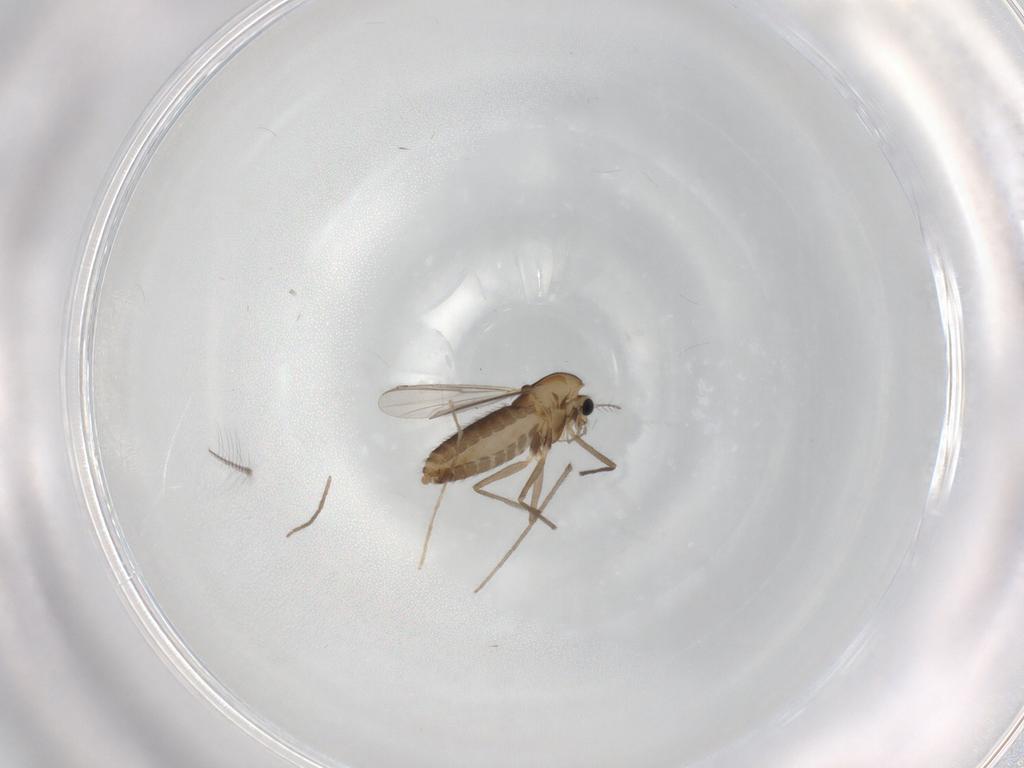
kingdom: Animalia
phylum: Arthropoda
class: Insecta
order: Diptera
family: Chironomidae
